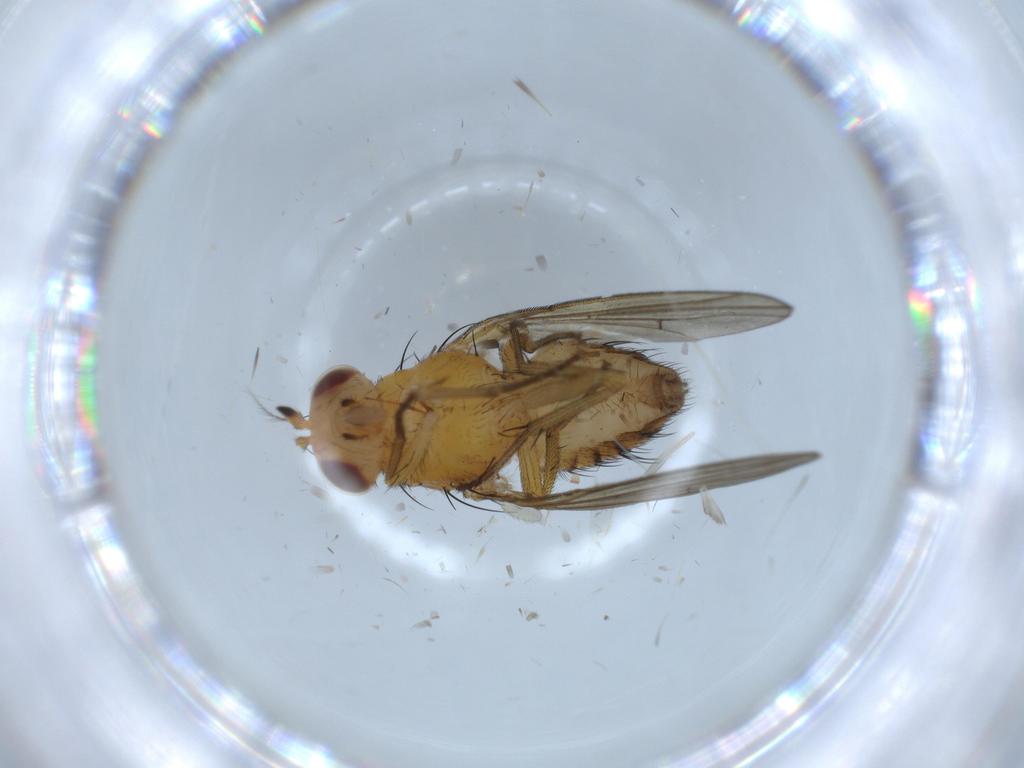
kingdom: Animalia
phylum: Arthropoda
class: Insecta
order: Diptera
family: Lauxaniidae
